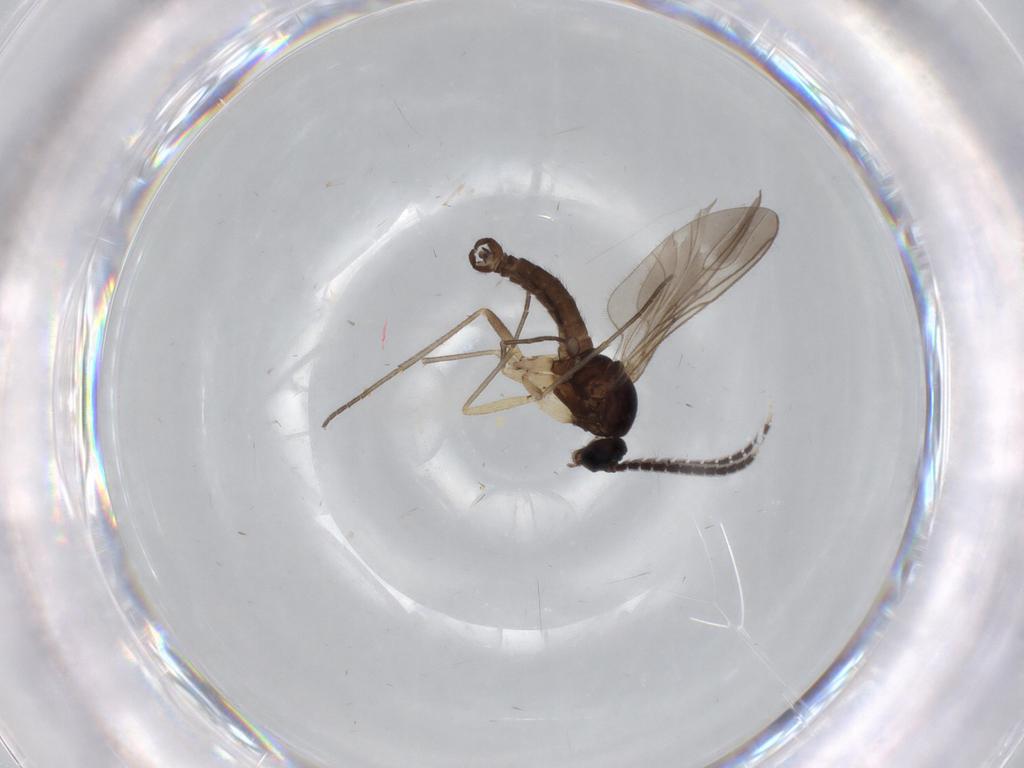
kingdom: Animalia
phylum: Arthropoda
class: Insecta
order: Diptera
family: Sciaridae
